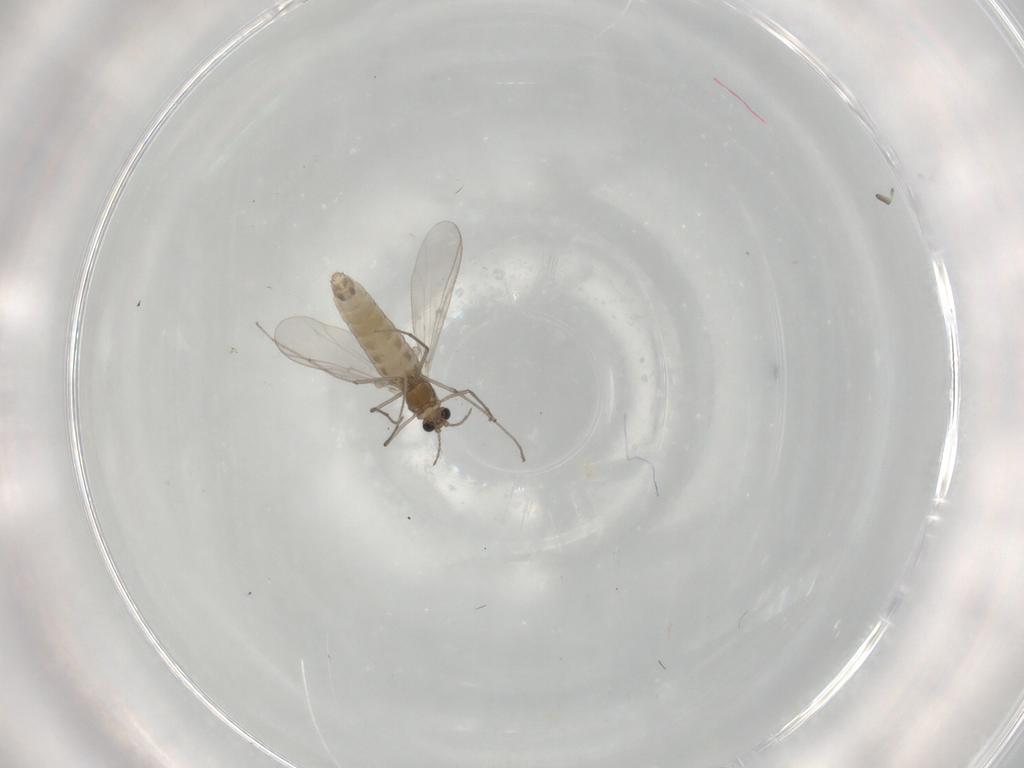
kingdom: Animalia
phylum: Arthropoda
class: Insecta
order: Diptera
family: Chironomidae
